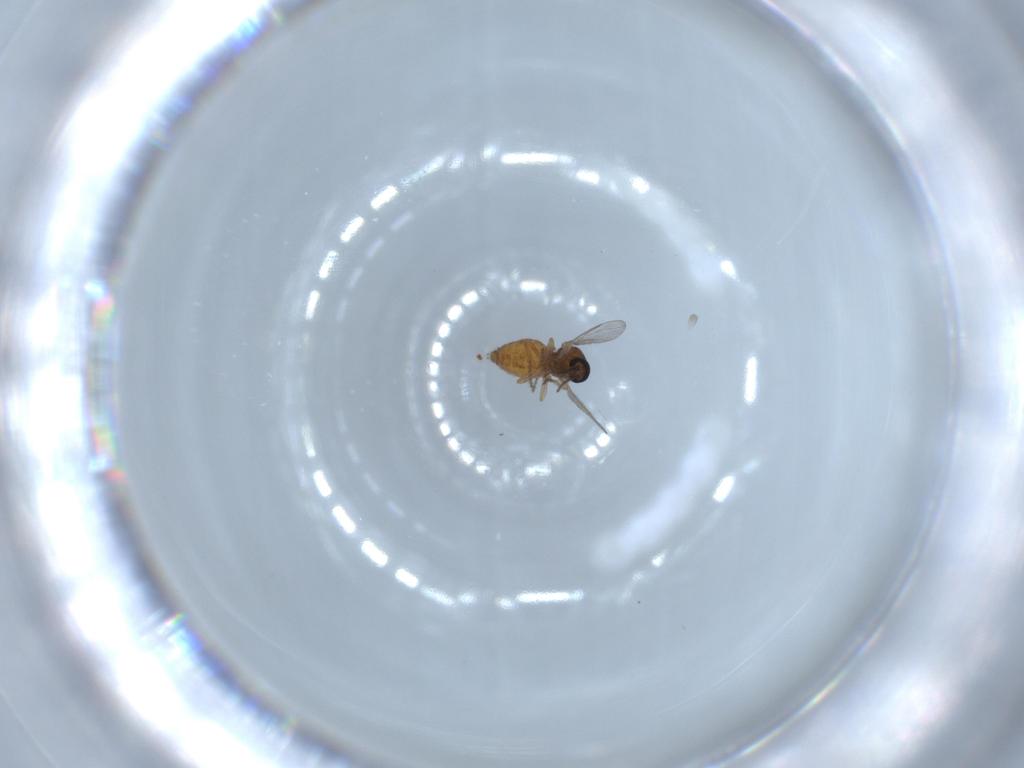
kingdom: Animalia
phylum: Arthropoda
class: Insecta
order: Diptera
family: Ceratopogonidae
